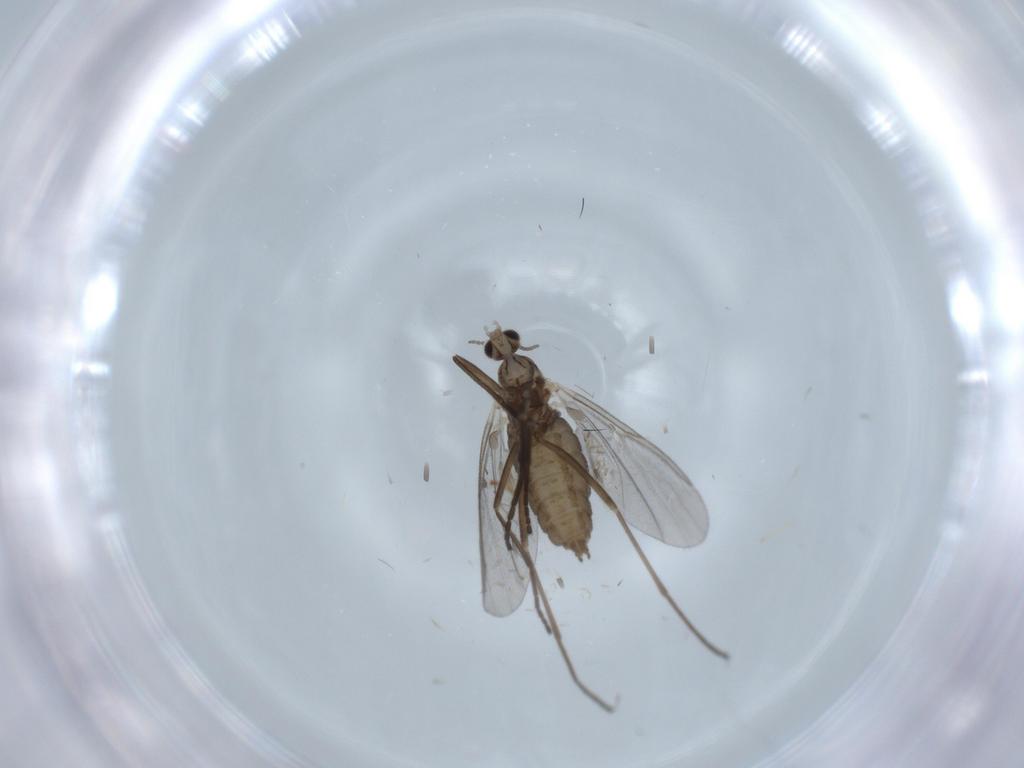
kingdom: Animalia
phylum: Arthropoda
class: Insecta
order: Diptera
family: Cecidomyiidae
